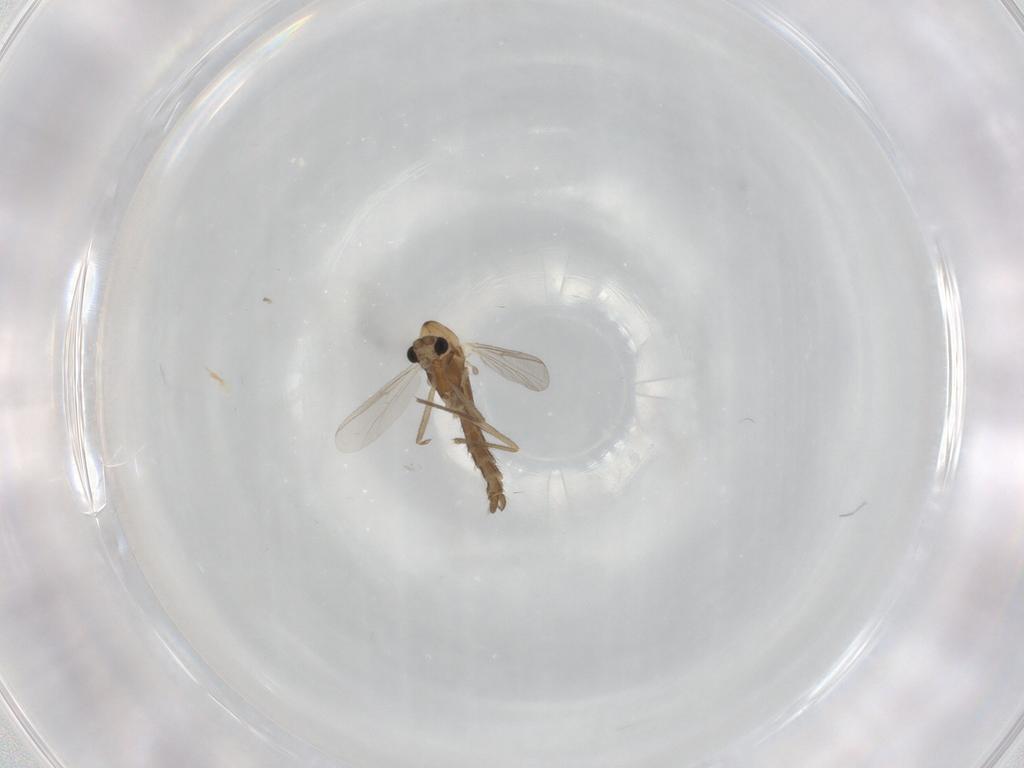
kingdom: Animalia
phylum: Arthropoda
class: Insecta
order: Diptera
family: Chironomidae
